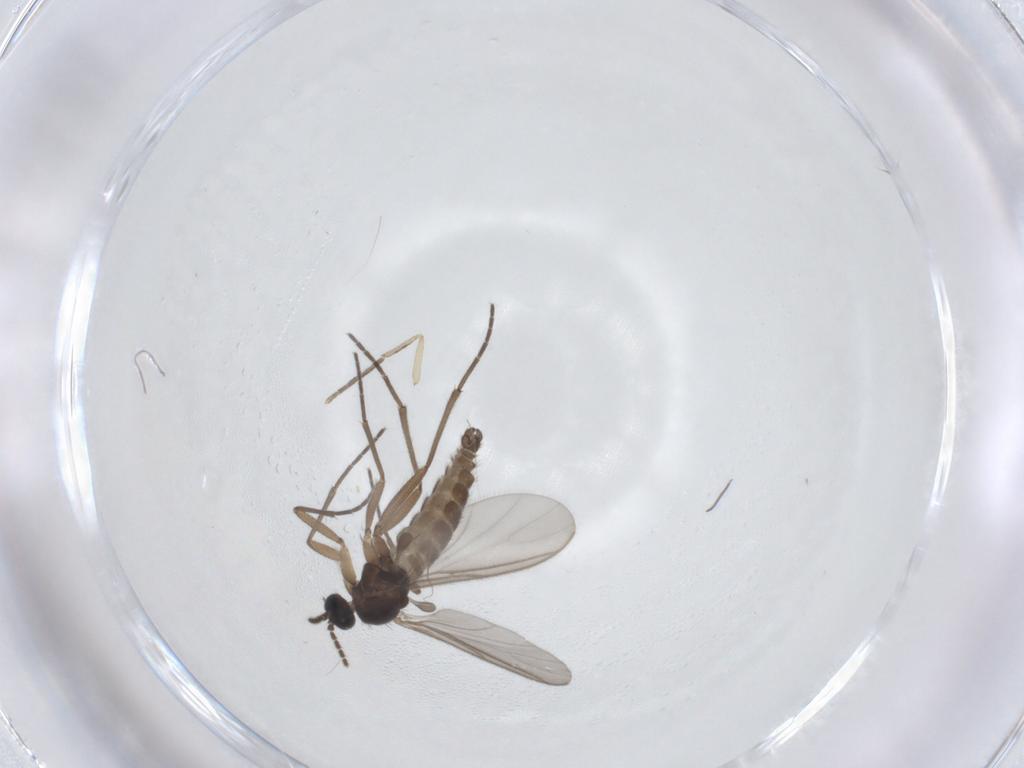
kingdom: Animalia
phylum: Arthropoda
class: Insecta
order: Diptera
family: Sciaridae
